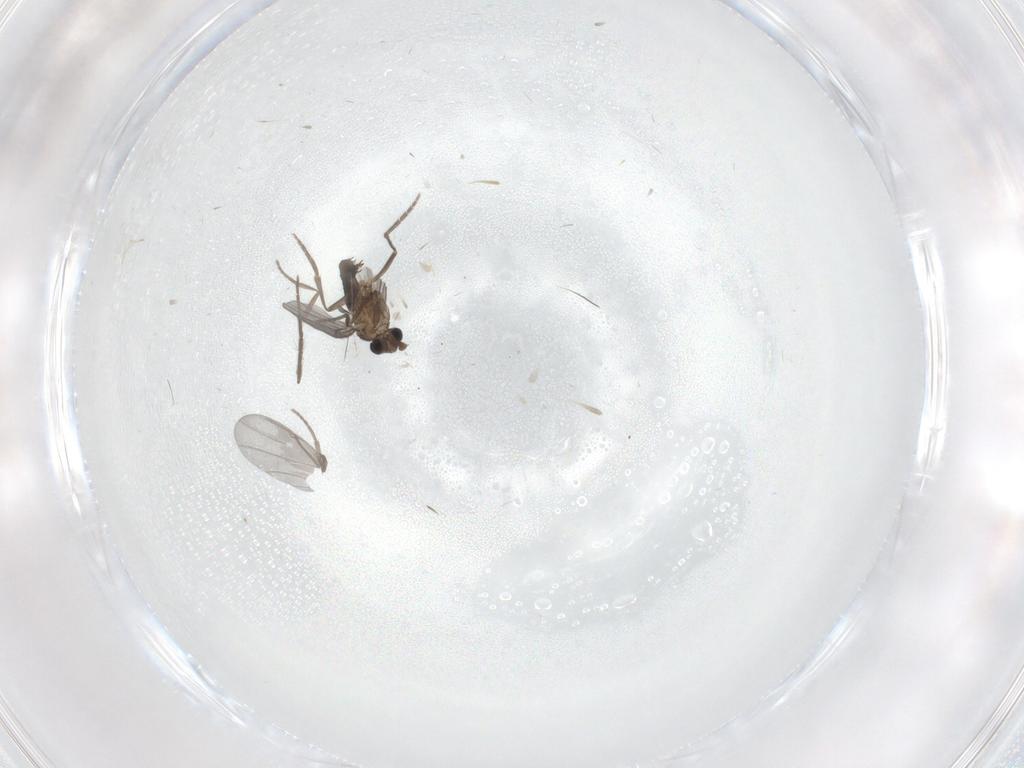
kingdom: Animalia
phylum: Arthropoda
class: Insecta
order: Diptera
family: Phoridae
